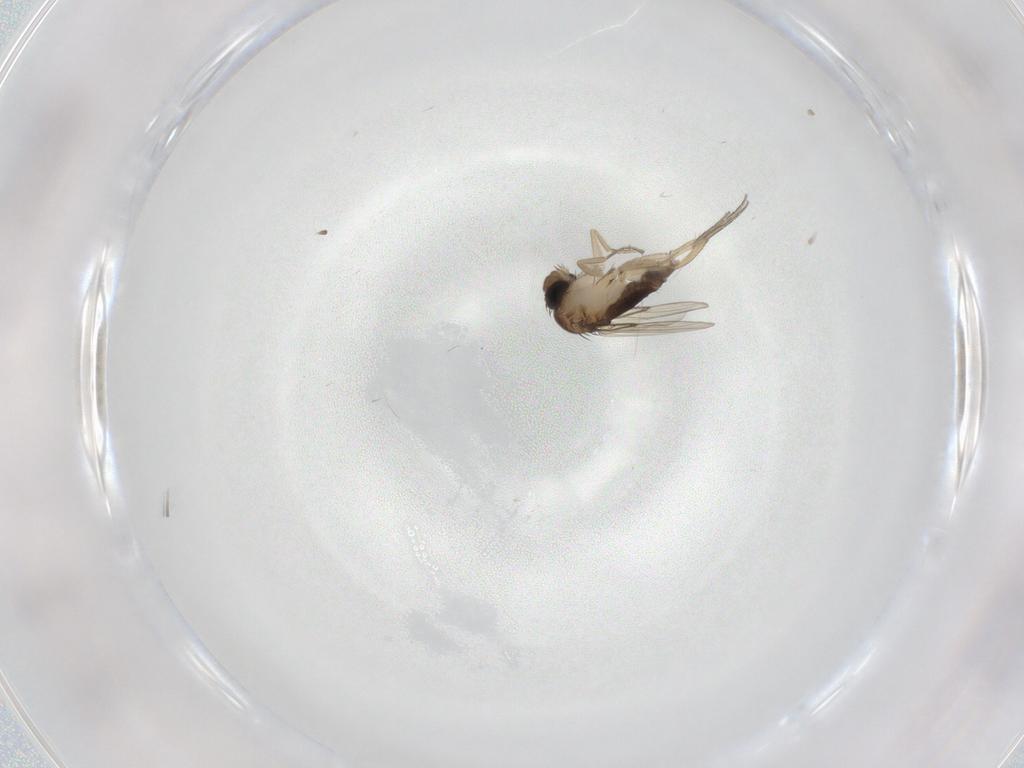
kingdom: Animalia
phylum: Arthropoda
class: Insecta
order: Diptera
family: Phoridae
